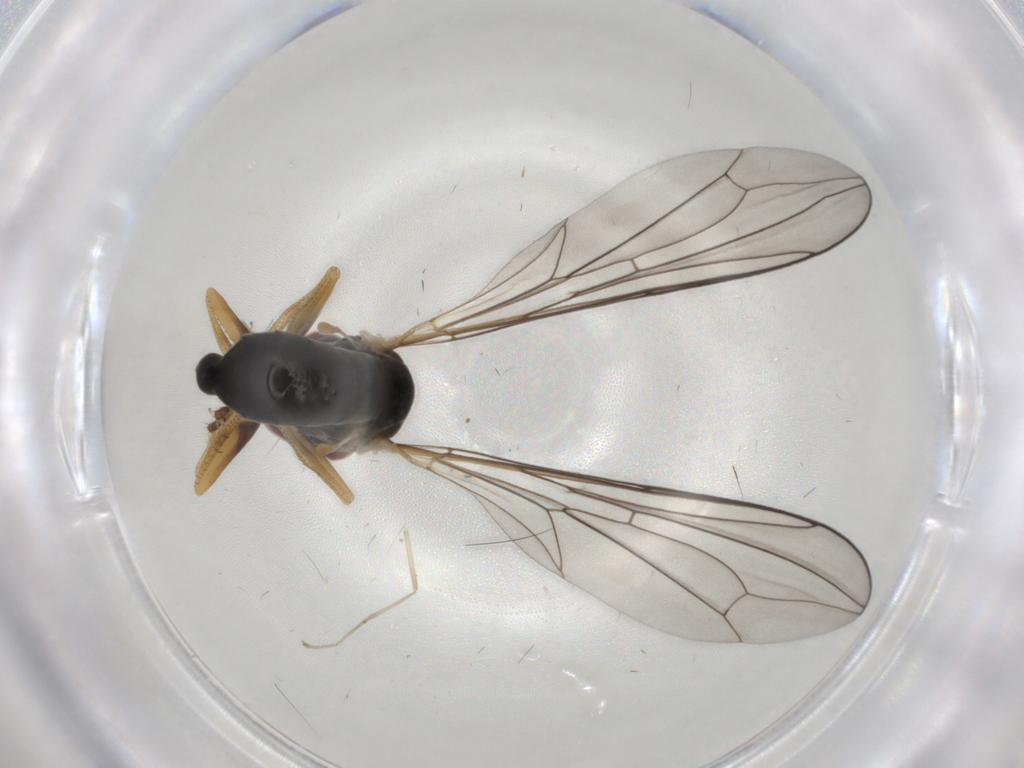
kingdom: Animalia
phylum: Arthropoda
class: Insecta
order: Diptera
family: Pipunculidae
